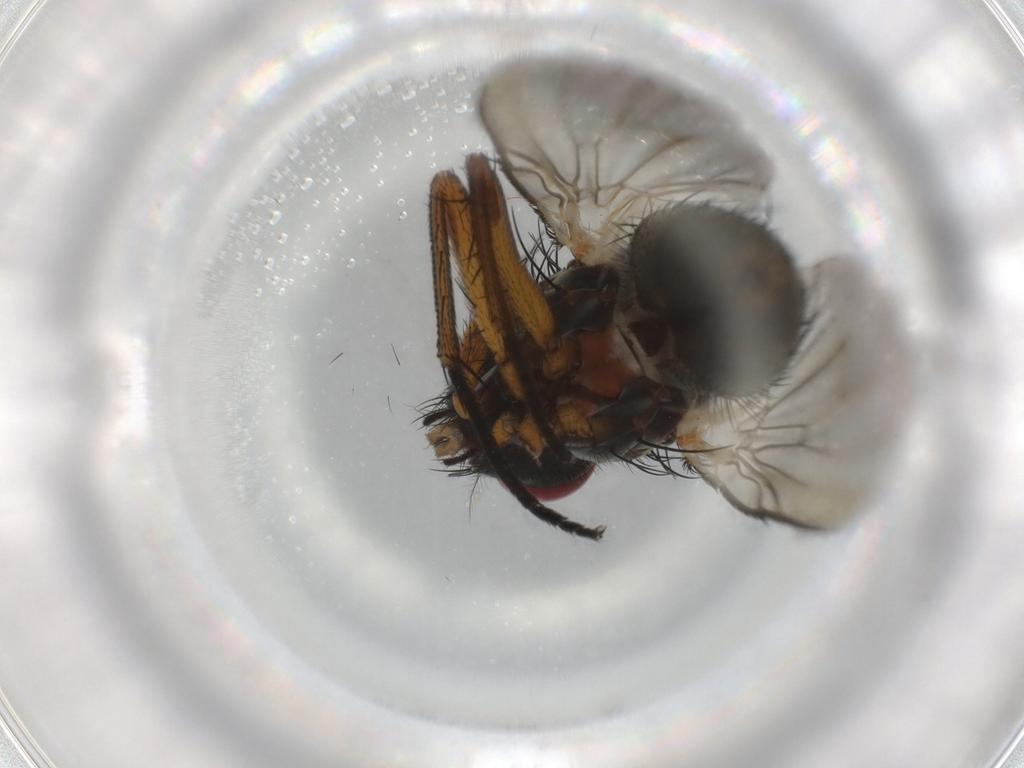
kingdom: Animalia
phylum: Arthropoda
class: Insecta
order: Diptera
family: Muscidae
